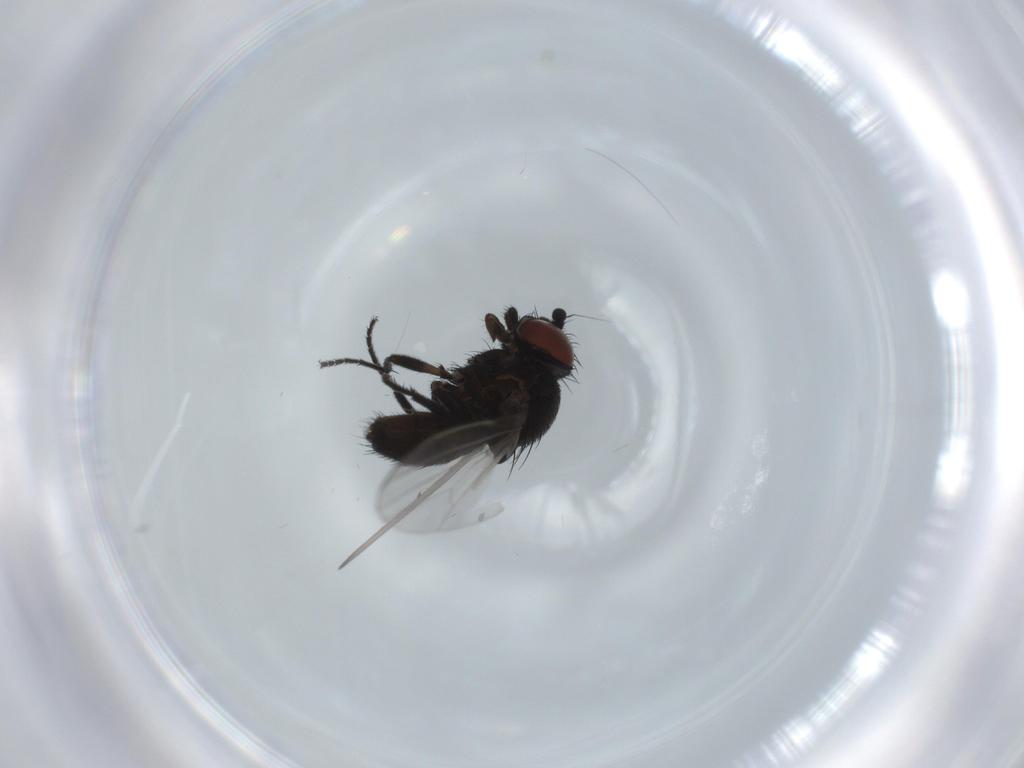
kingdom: Animalia
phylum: Arthropoda
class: Insecta
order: Diptera
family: Milichiidae
